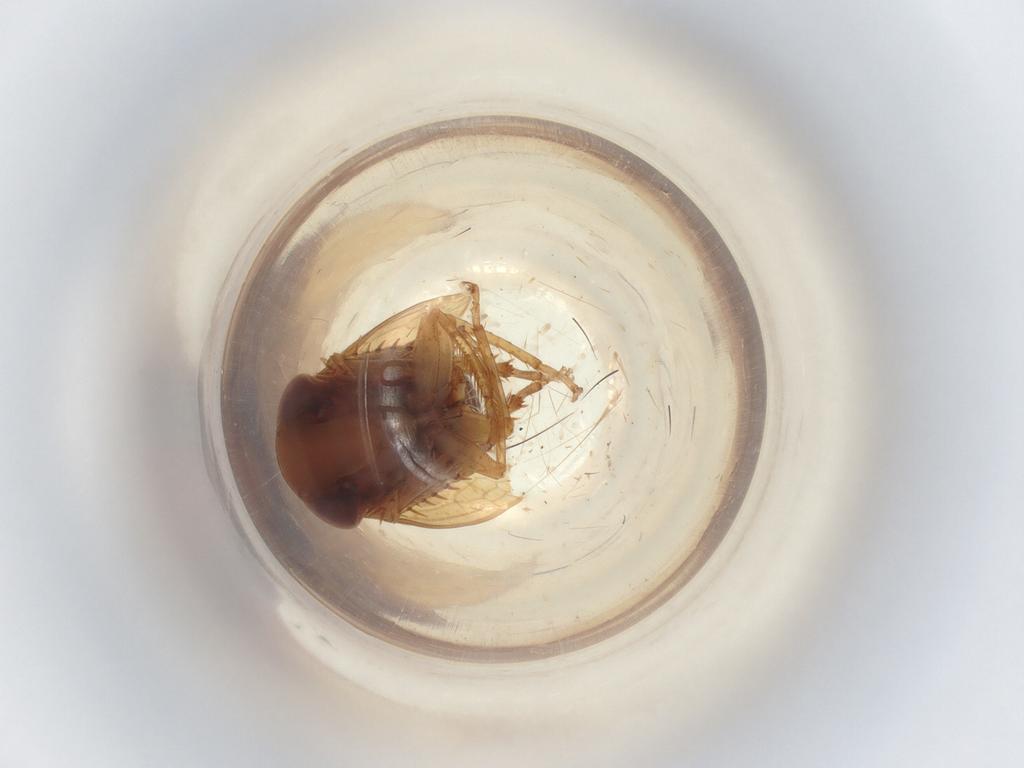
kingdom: Animalia
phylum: Arthropoda
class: Insecta
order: Hemiptera
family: Cicadellidae
